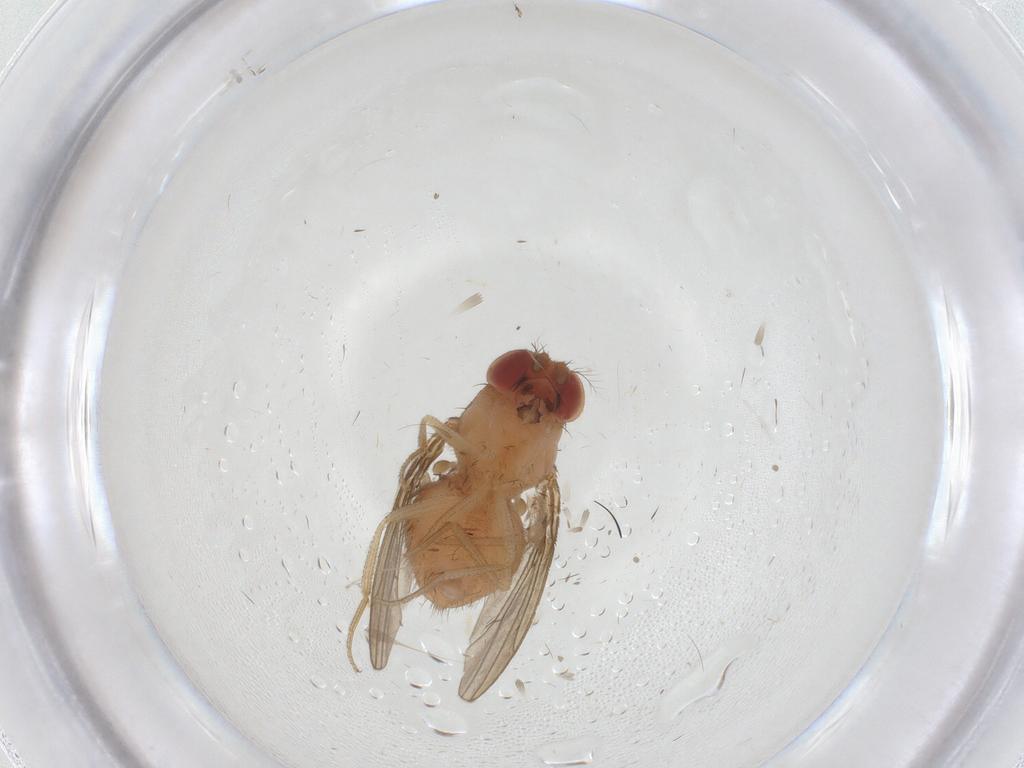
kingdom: Animalia
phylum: Arthropoda
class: Insecta
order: Diptera
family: Drosophilidae
